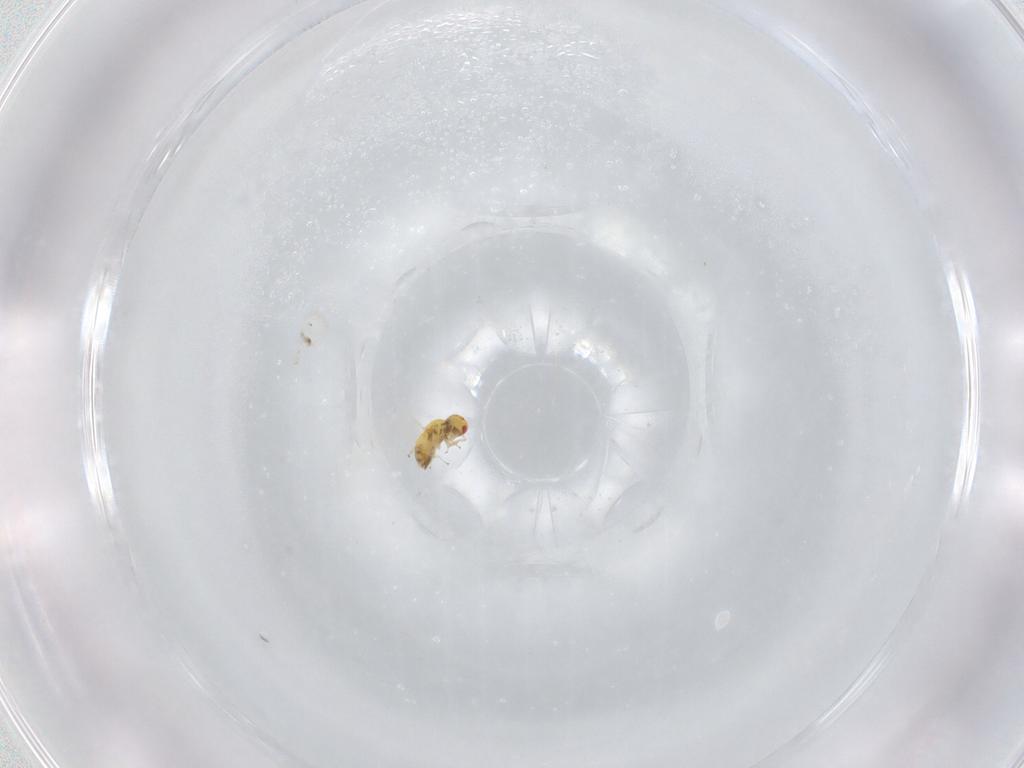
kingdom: Animalia
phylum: Arthropoda
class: Insecta
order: Diptera
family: Chironomidae
